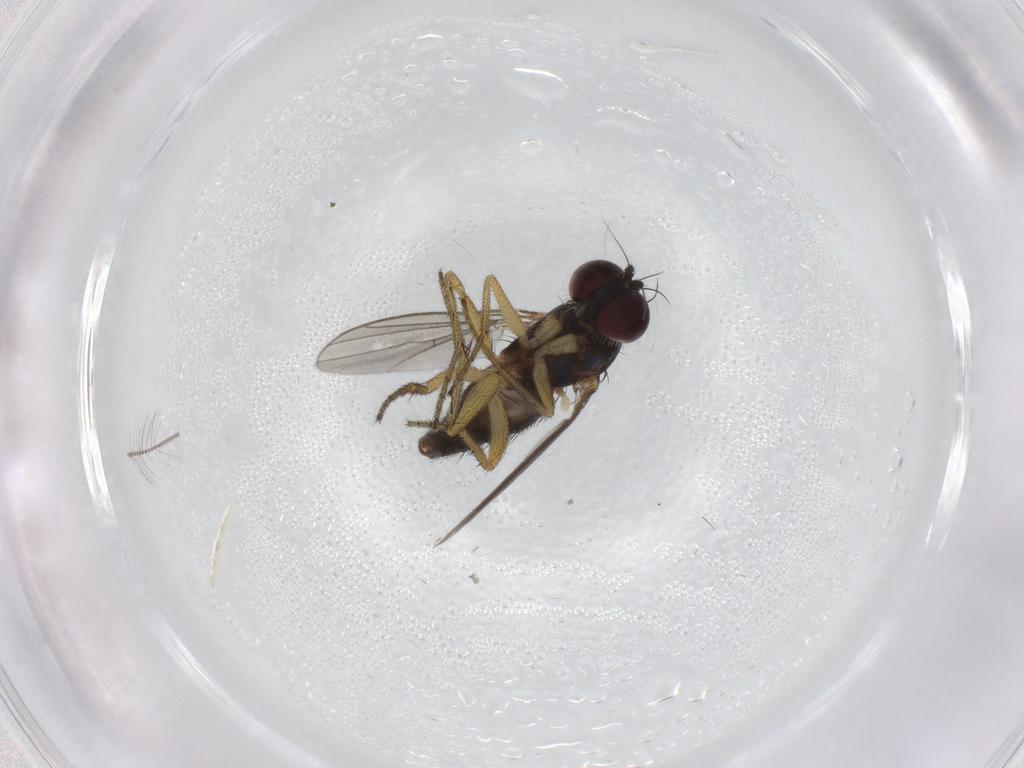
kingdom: Animalia
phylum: Arthropoda
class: Insecta
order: Diptera
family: Dolichopodidae
